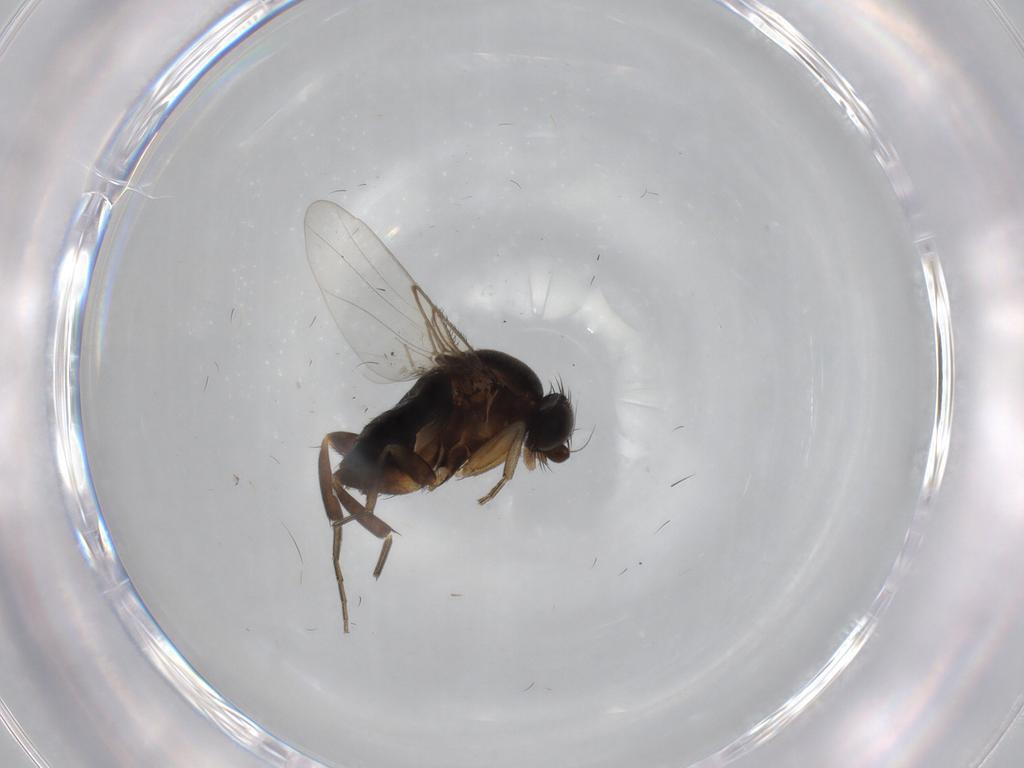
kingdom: Animalia
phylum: Arthropoda
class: Insecta
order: Diptera
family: Phoridae
